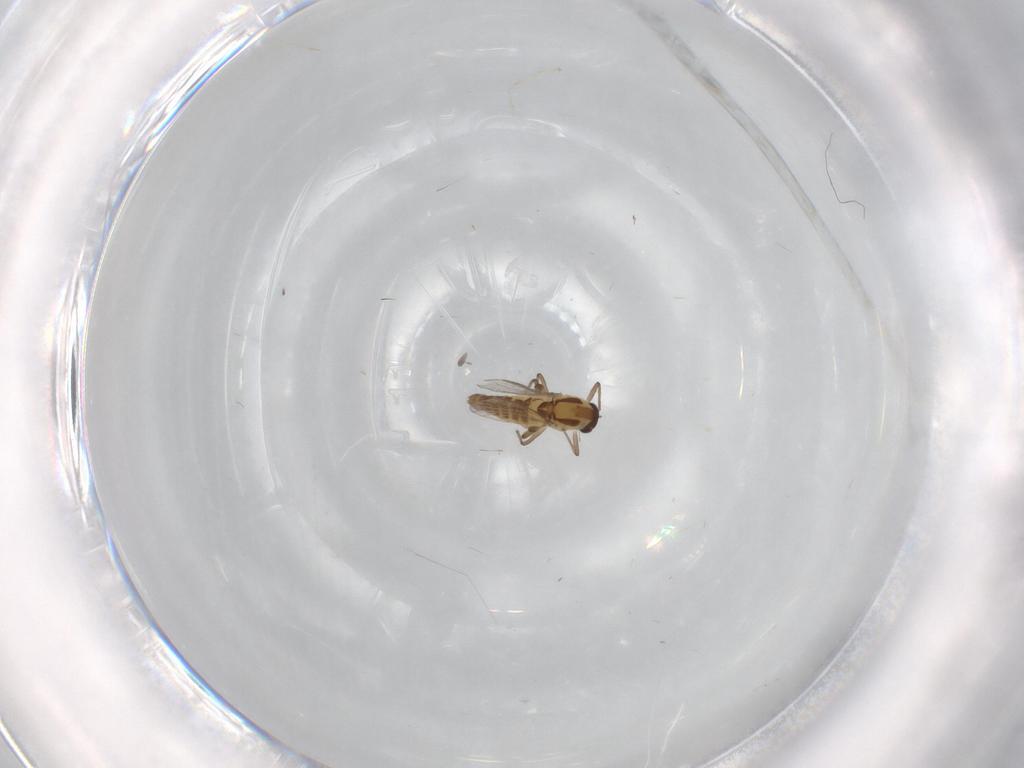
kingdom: Animalia
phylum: Arthropoda
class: Insecta
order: Diptera
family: Chironomidae
